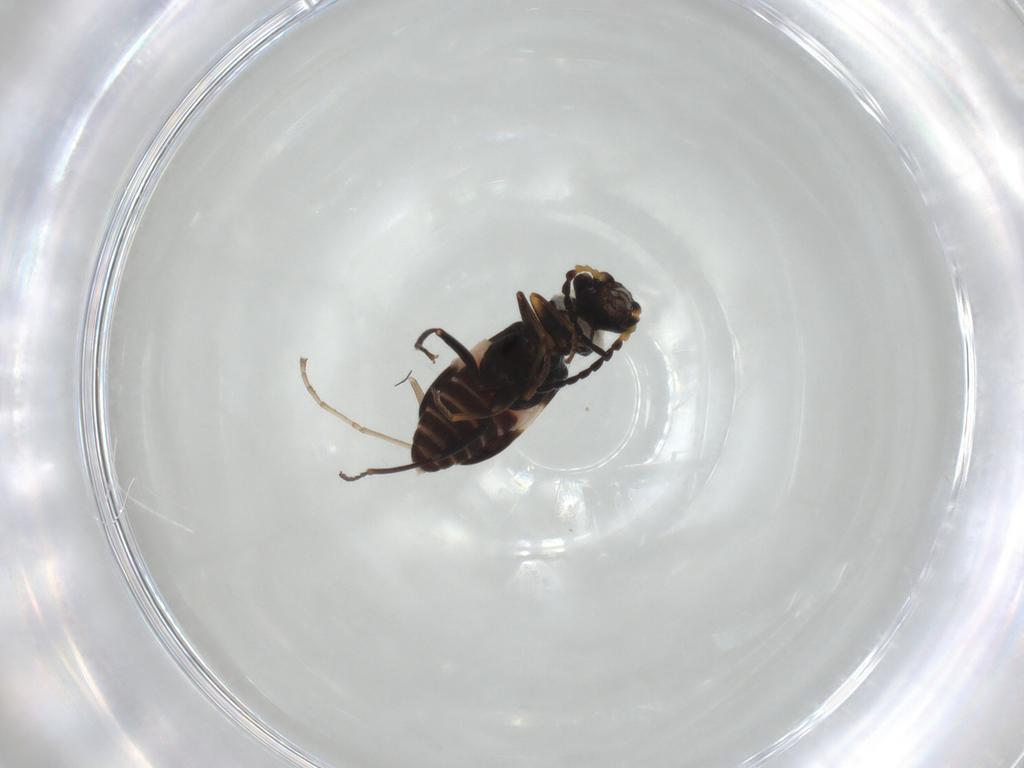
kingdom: Animalia
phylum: Arthropoda
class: Insecta
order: Coleoptera
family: Melyridae
